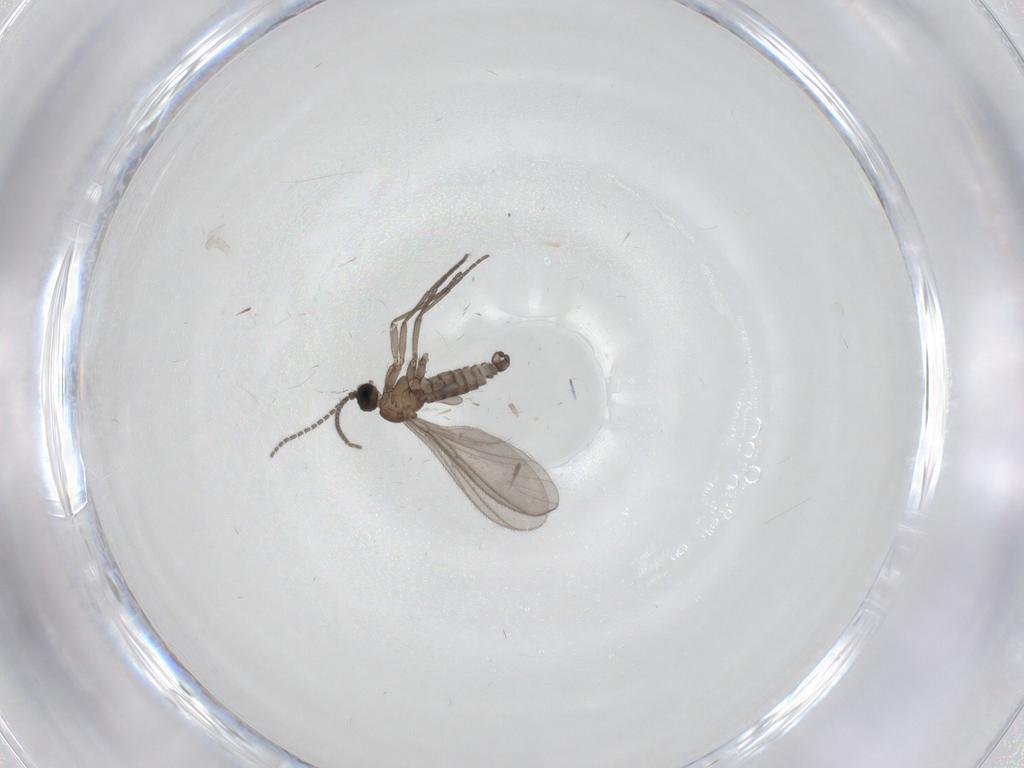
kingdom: Animalia
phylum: Arthropoda
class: Insecta
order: Diptera
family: Sciaridae
